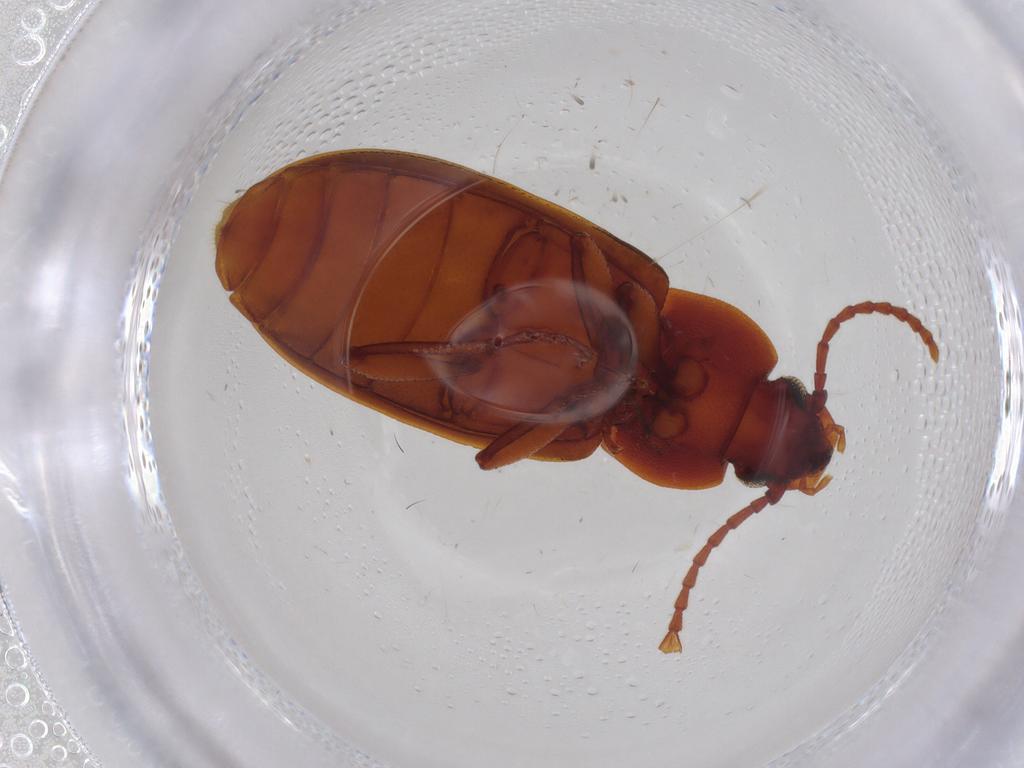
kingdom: Animalia
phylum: Arthropoda
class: Insecta
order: Coleoptera
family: Tenebrionidae
